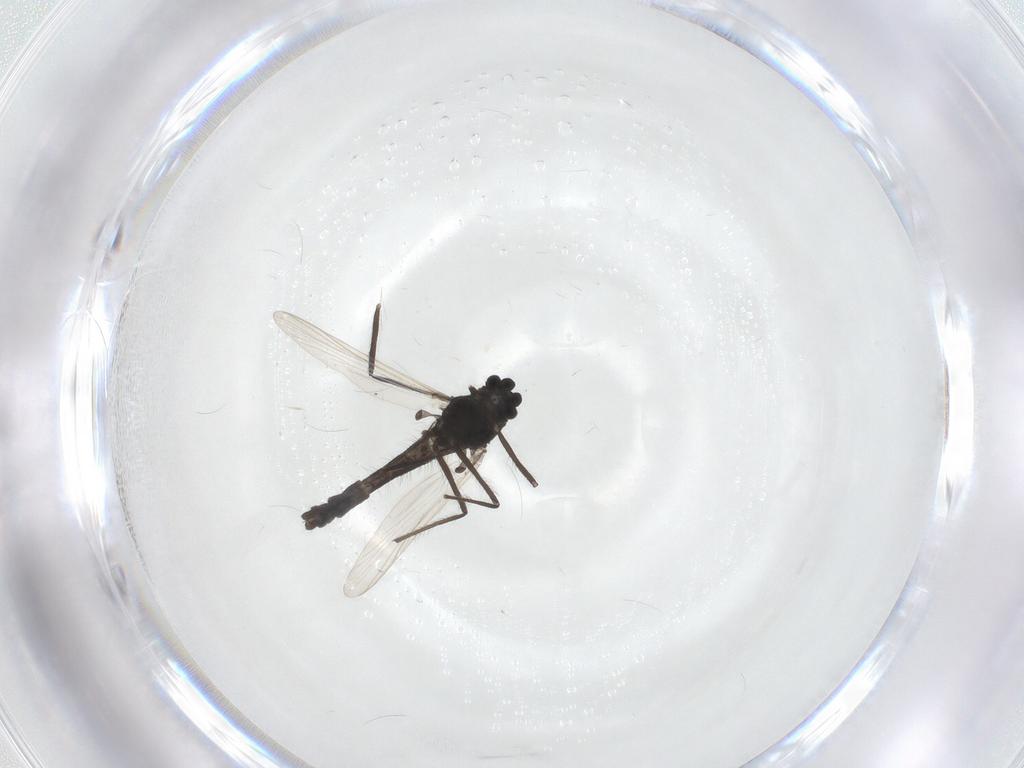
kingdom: Animalia
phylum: Arthropoda
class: Insecta
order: Diptera
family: Chironomidae
